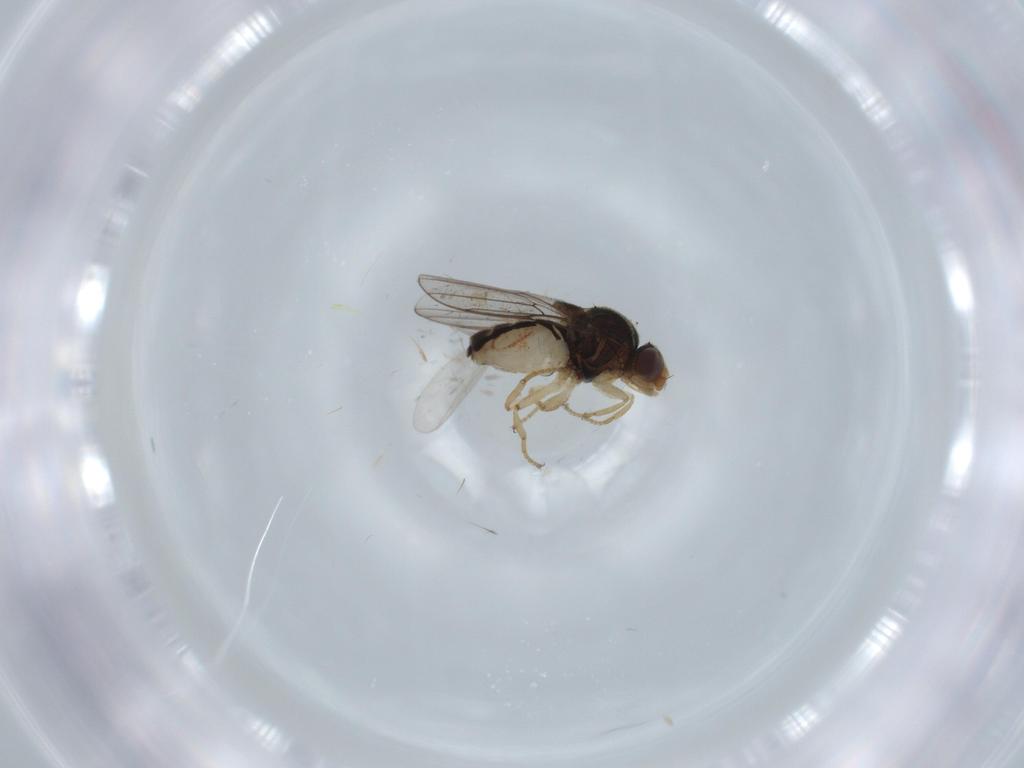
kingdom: Animalia
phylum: Arthropoda
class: Insecta
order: Diptera
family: Chloropidae
